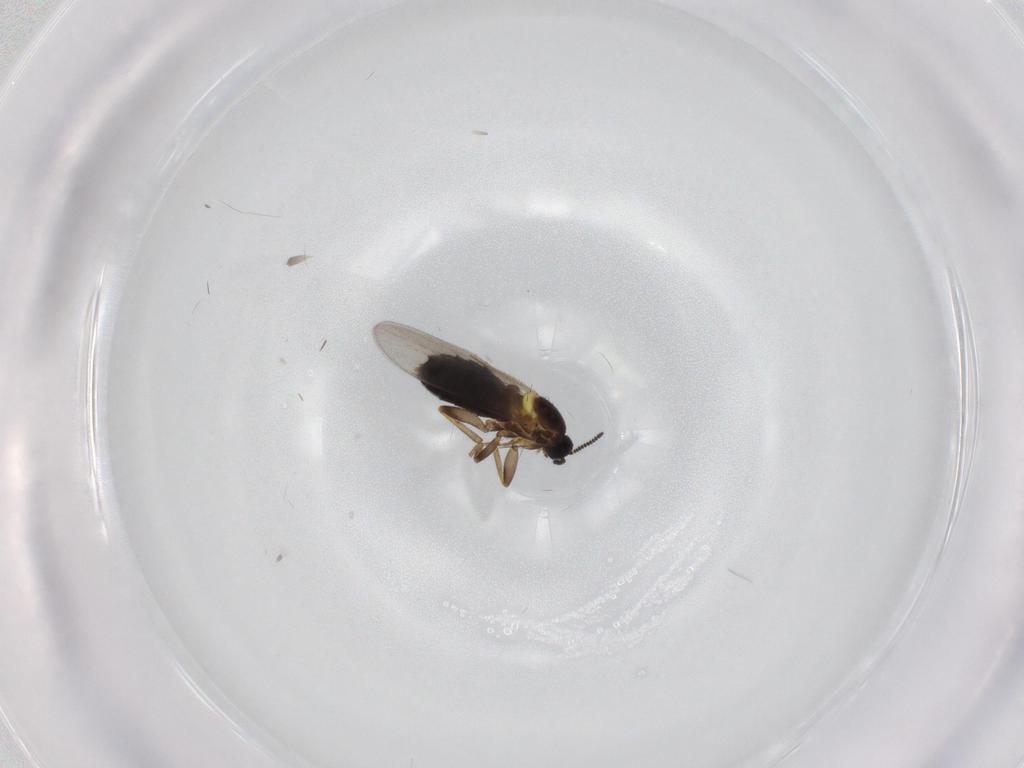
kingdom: Animalia
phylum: Arthropoda
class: Insecta
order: Diptera
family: Scatopsidae
